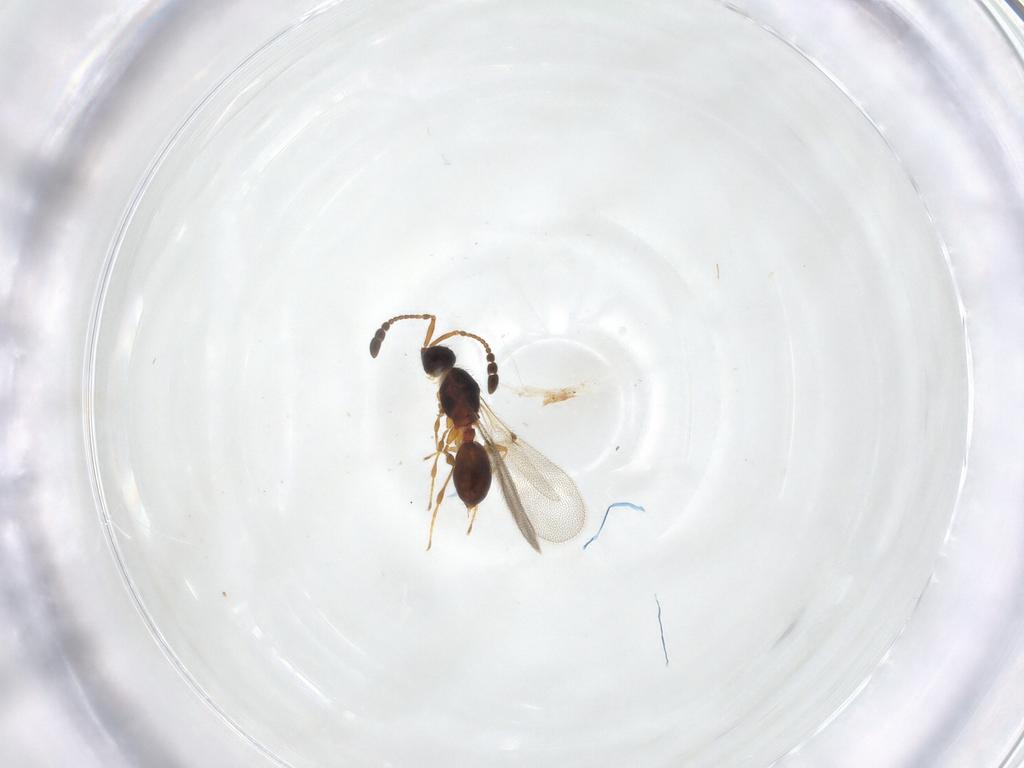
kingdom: Animalia
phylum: Arthropoda
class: Insecta
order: Hymenoptera
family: Diapriidae
